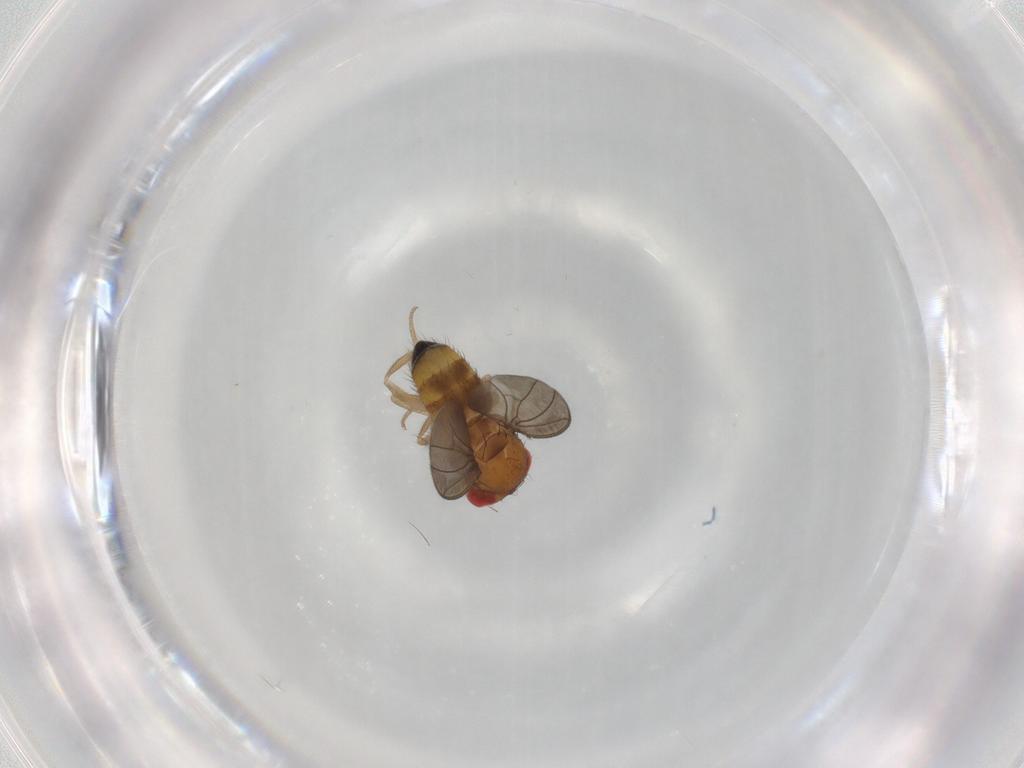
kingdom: Animalia
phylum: Arthropoda
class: Insecta
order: Diptera
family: Drosophilidae
